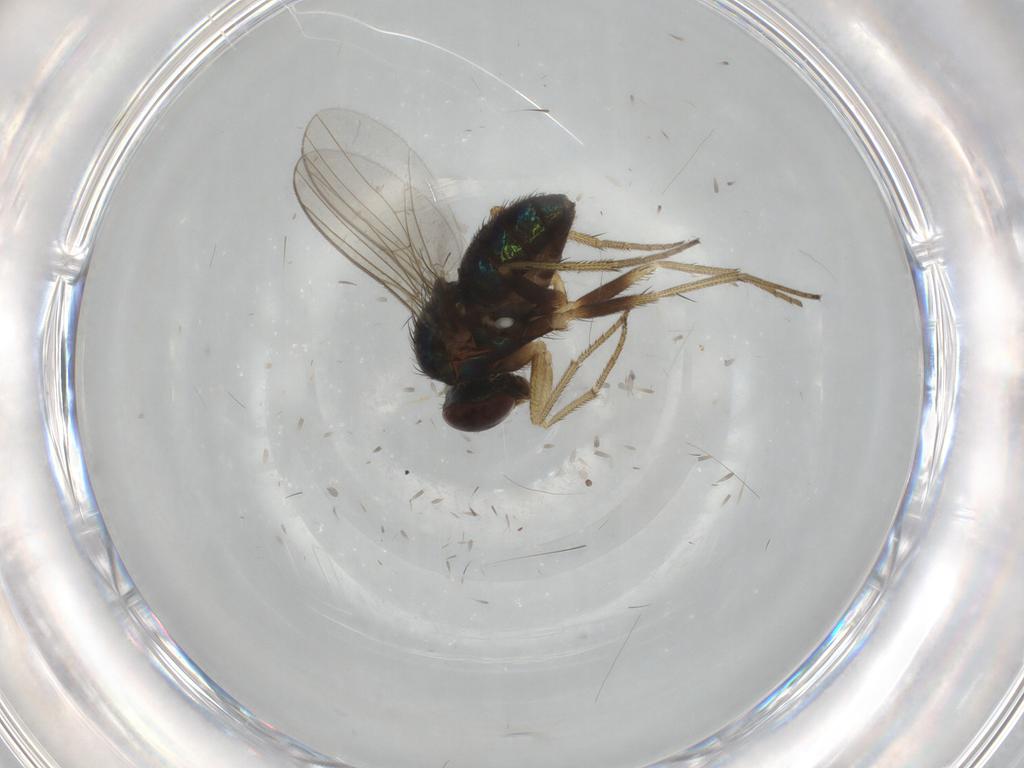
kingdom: Animalia
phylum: Arthropoda
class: Insecta
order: Diptera
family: Dolichopodidae
